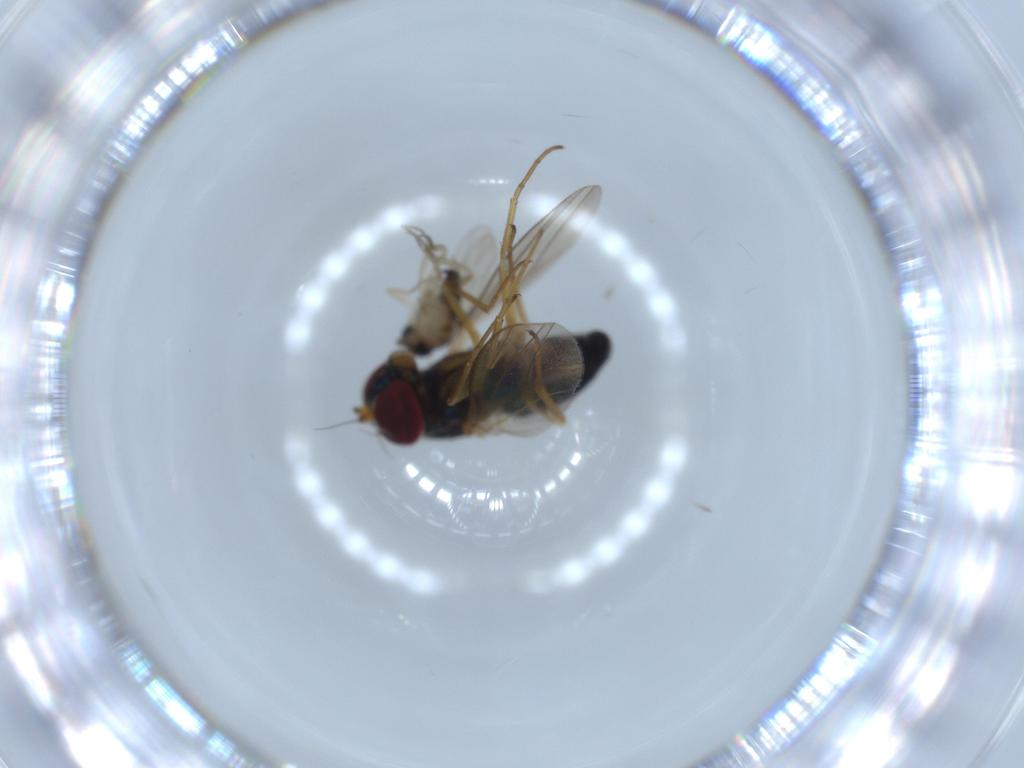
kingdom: Animalia
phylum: Arthropoda
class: Insecta
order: Diptera
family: Dolichopodidae
